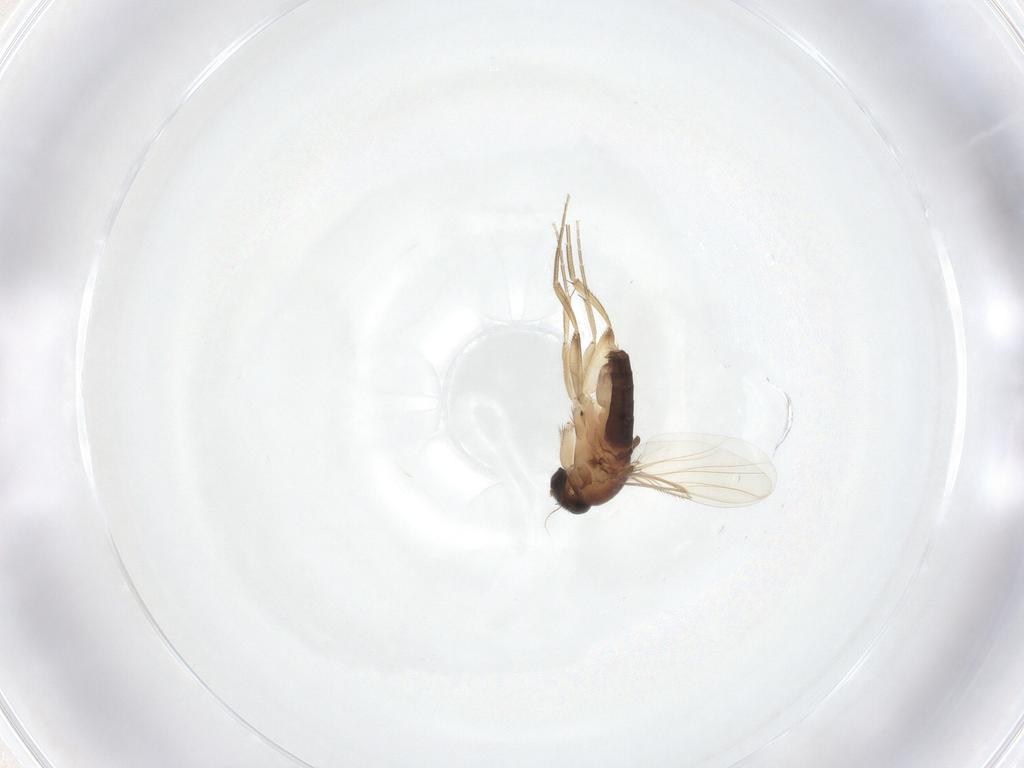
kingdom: Animalia
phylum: Arthropoda
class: Insecta
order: Diptera
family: Phoridae
